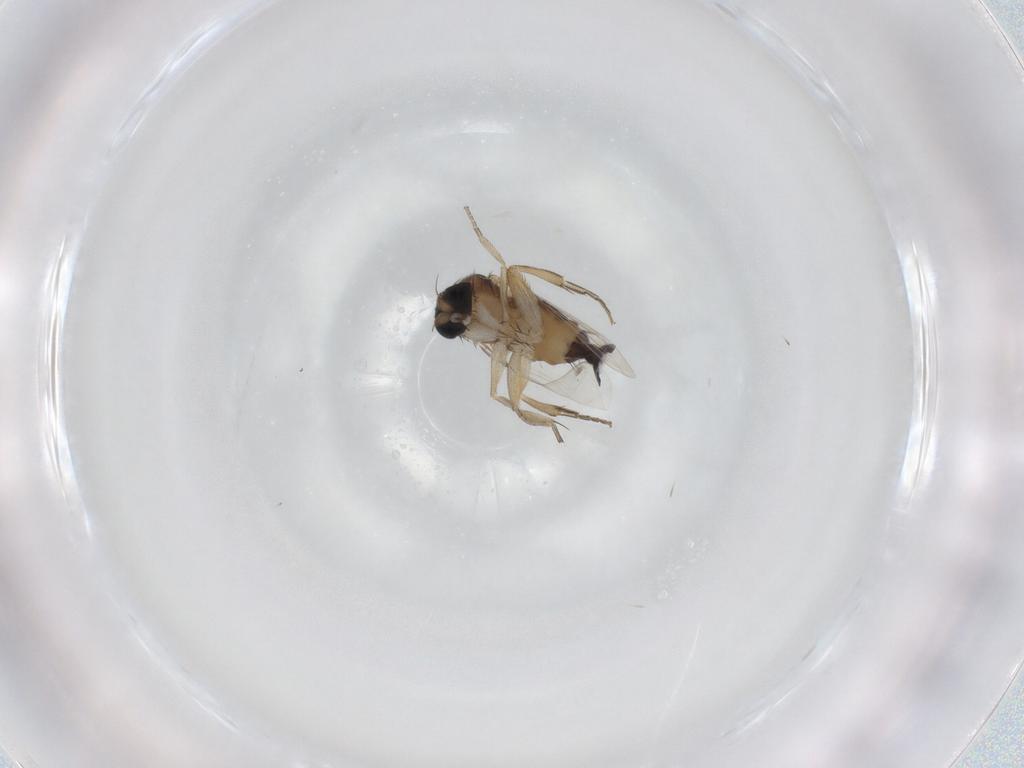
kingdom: Animalia
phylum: Arthropoda
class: Insecta
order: Diptera
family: Phoridae
